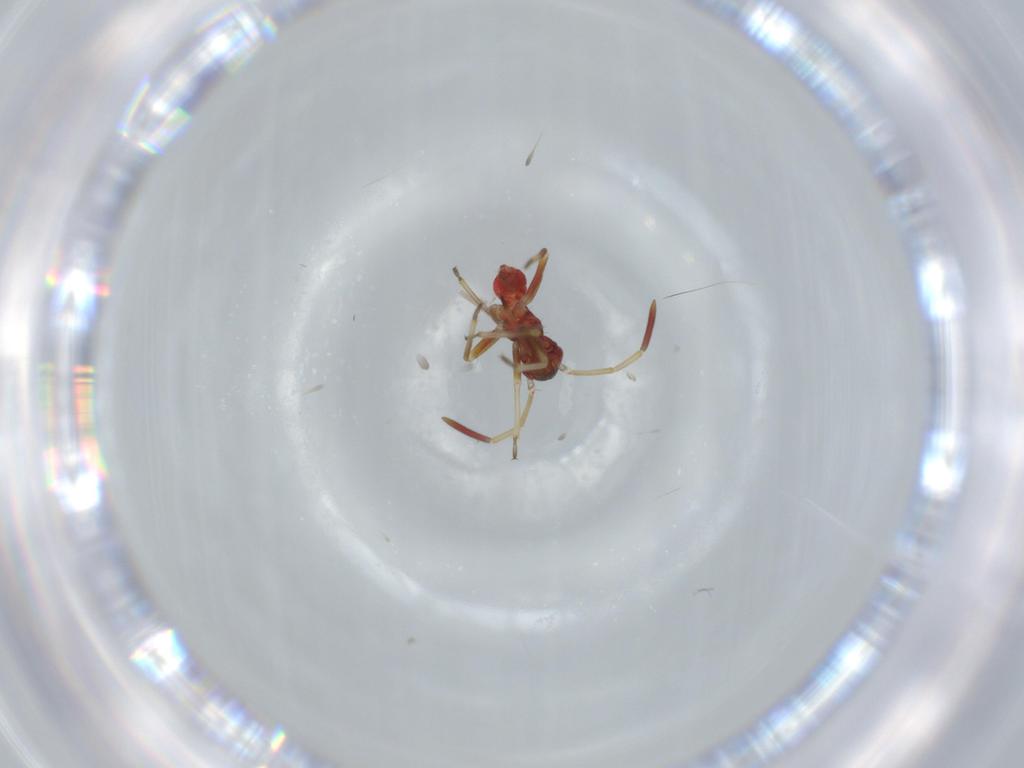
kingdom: Animalia
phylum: Arthropoda
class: Insecta
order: Hemiptera
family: Miridae
